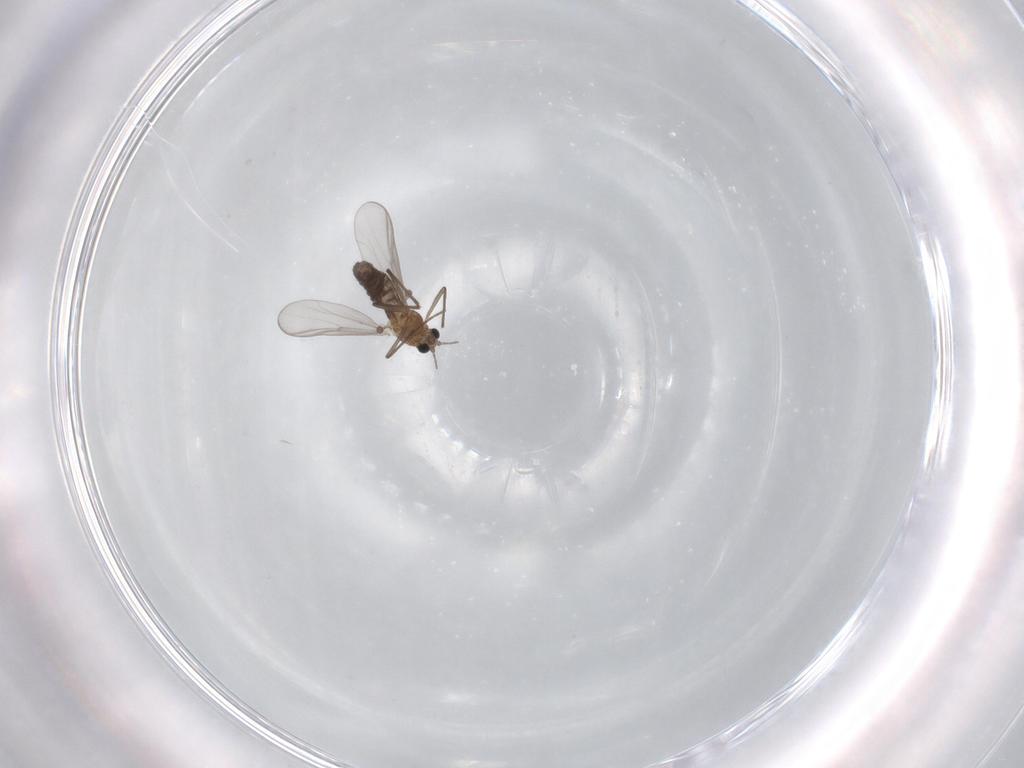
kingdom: Animalia
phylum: Arthropoda
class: Insecta
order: Diptera
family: Chironomidae
